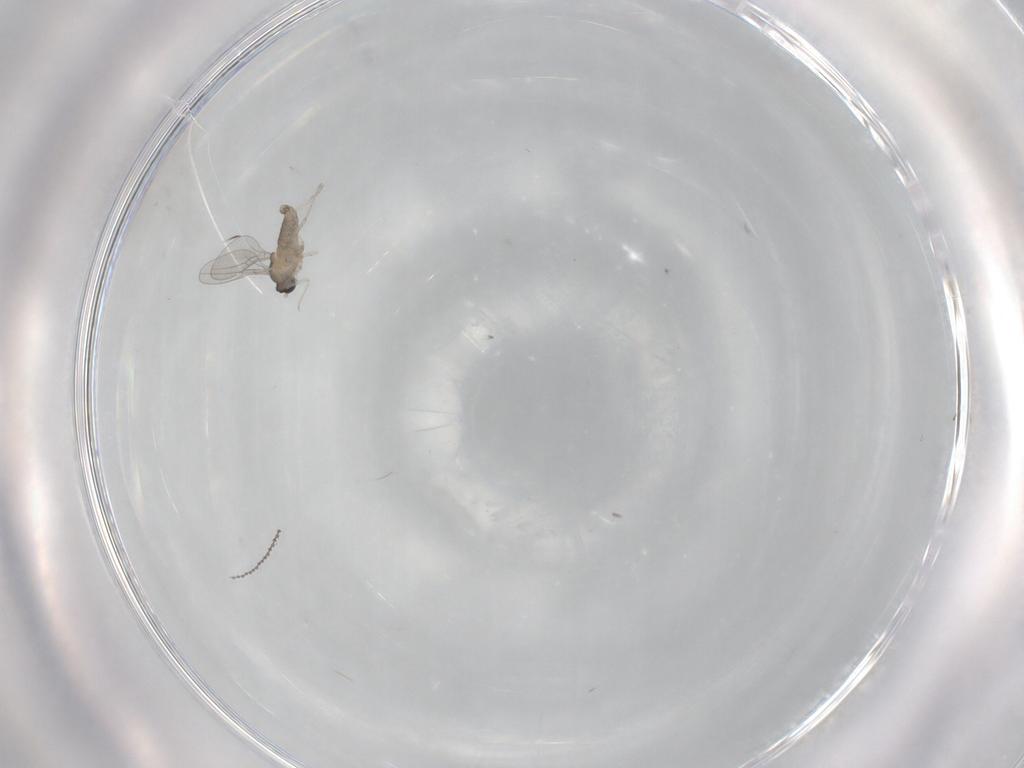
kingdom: Animalia
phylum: Arthropoda
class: Insecta
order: Diptera
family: Cecidomyiidae
